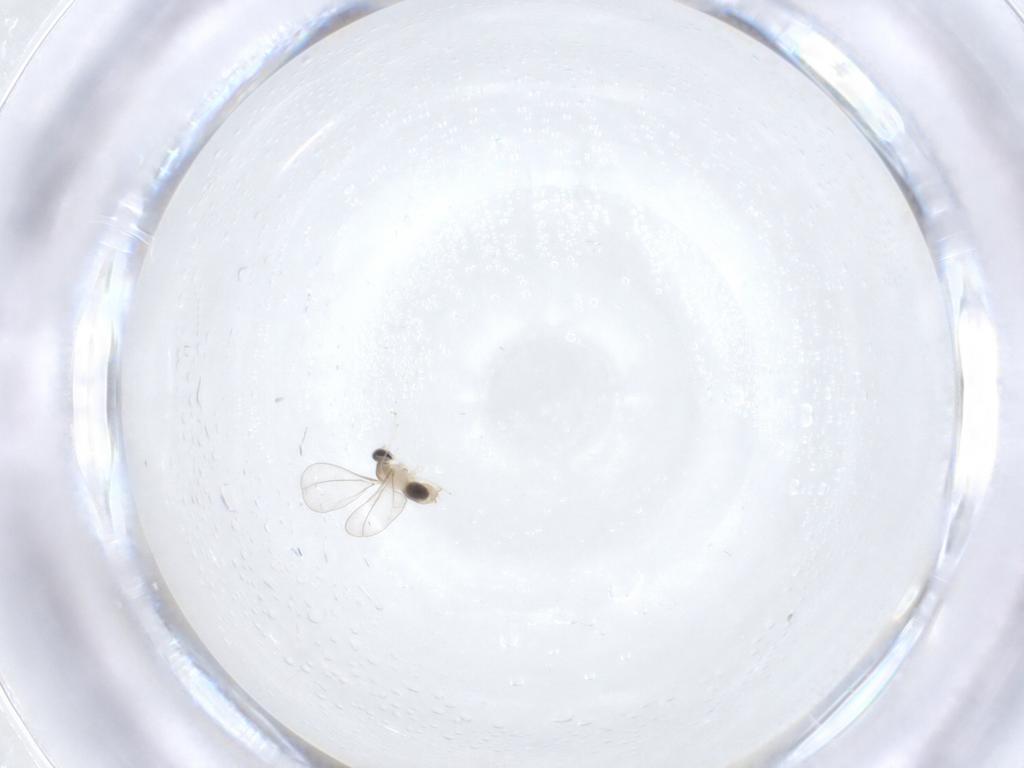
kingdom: Animalia
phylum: Arthropoda
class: Insecta
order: Diptera
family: Cecidomyiidae
